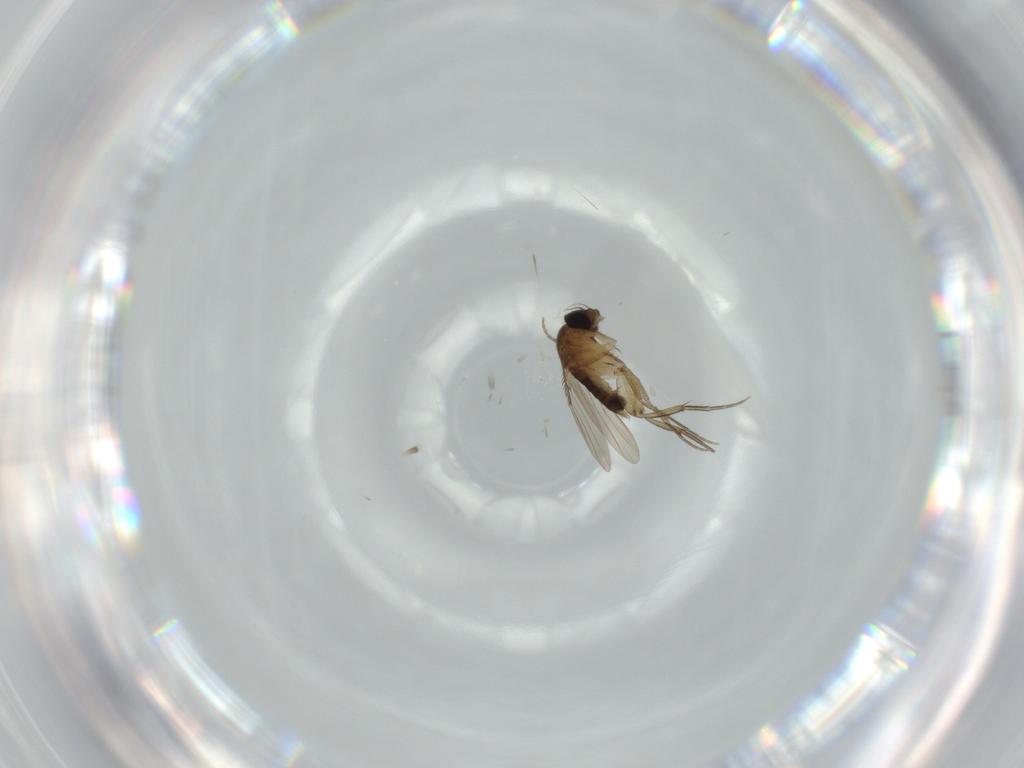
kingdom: Animalia
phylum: Arthropoda
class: Insecta
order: Diptera
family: Phoridae
